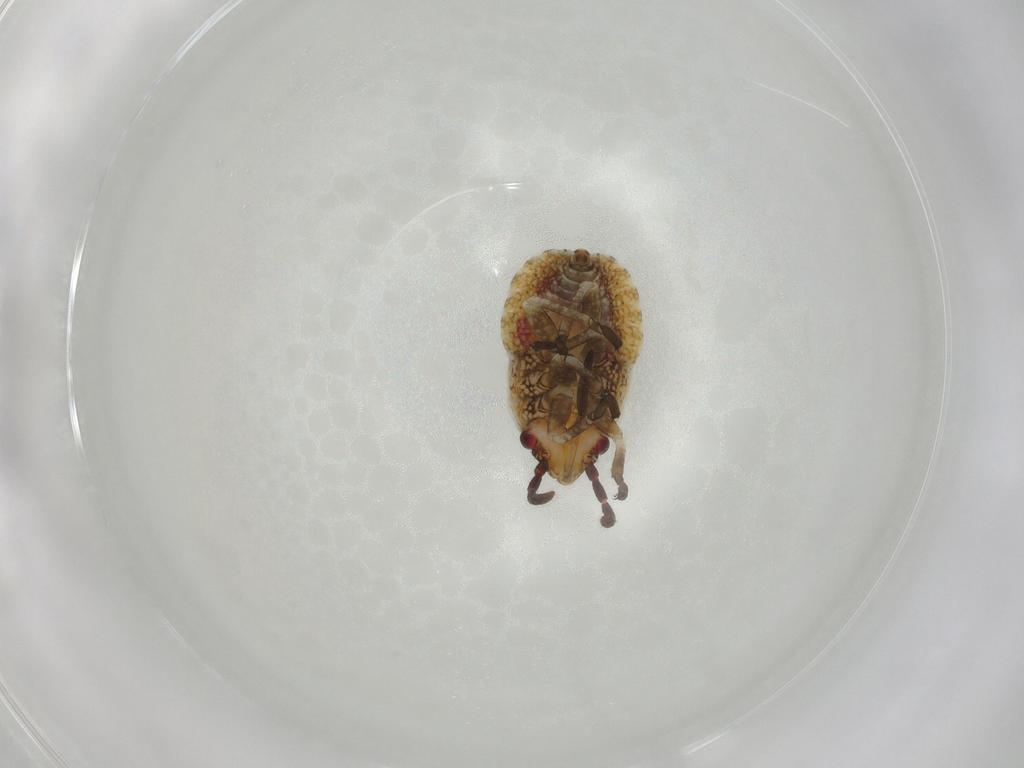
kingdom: Animalia
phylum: Arthropoda
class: Insecta
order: Hemiptera
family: Lygaeidae
